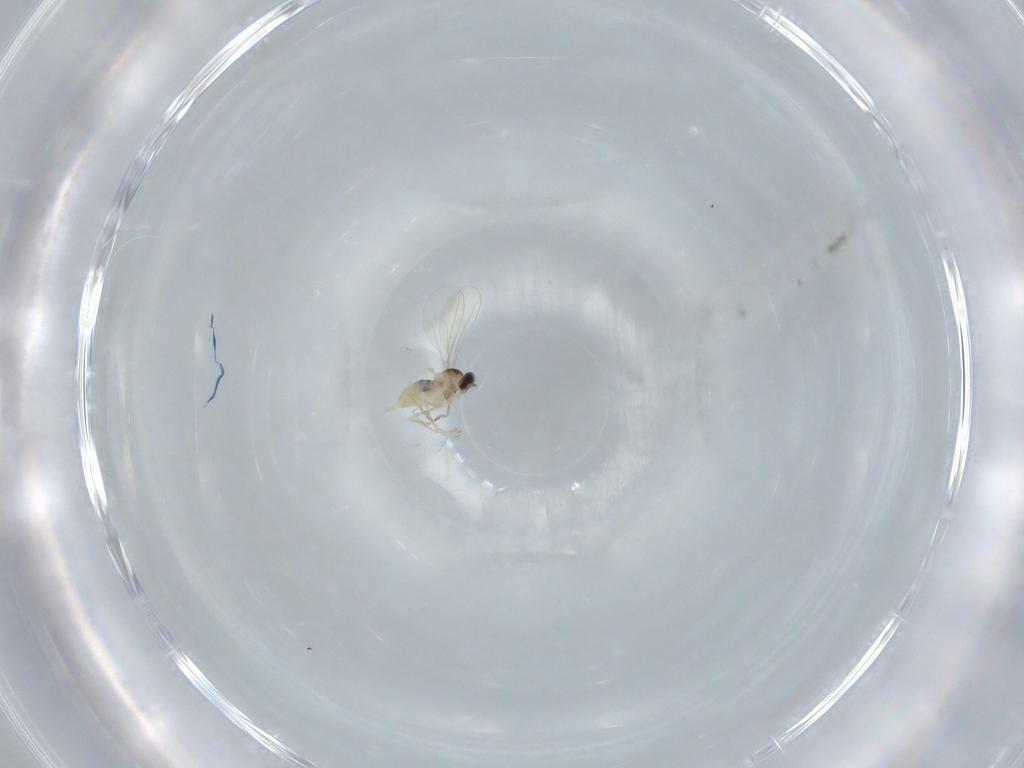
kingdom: Animalia
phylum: Arthropoda
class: Insecta
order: Diptera
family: Cecidomyiidae
